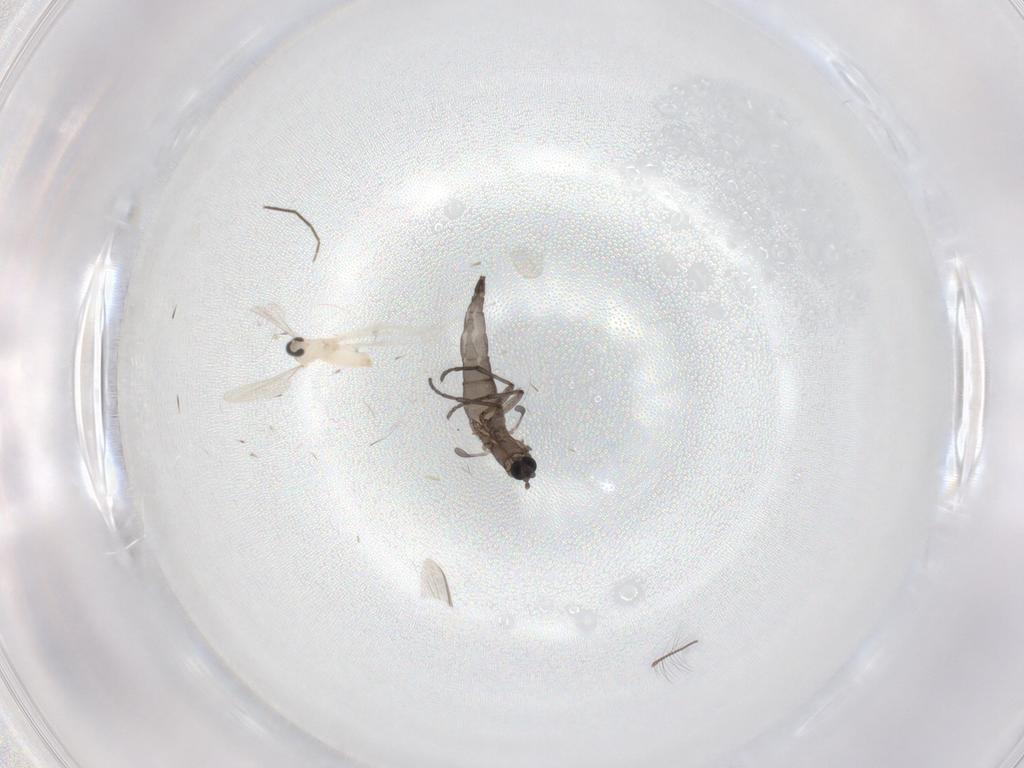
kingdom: Animalia
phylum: Arthropoda
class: Insecta
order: Diptera
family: Sciaridae
